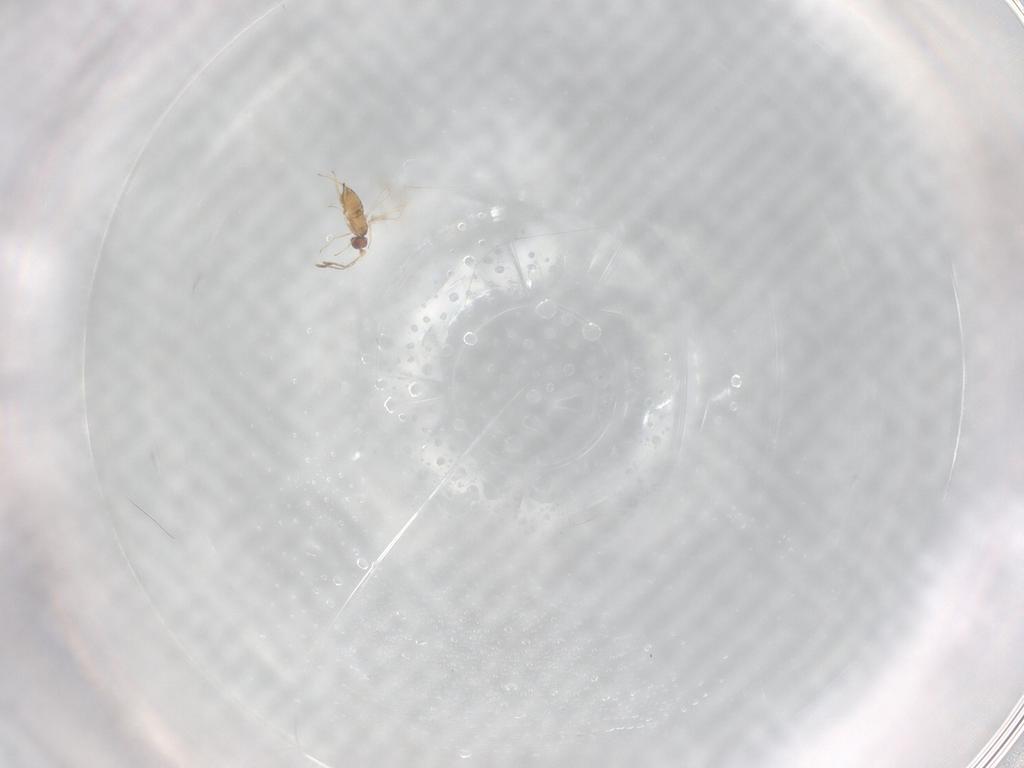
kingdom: Animalia
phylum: Arthropoda
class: Insecta
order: Hymenoptera
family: Mymaridae
